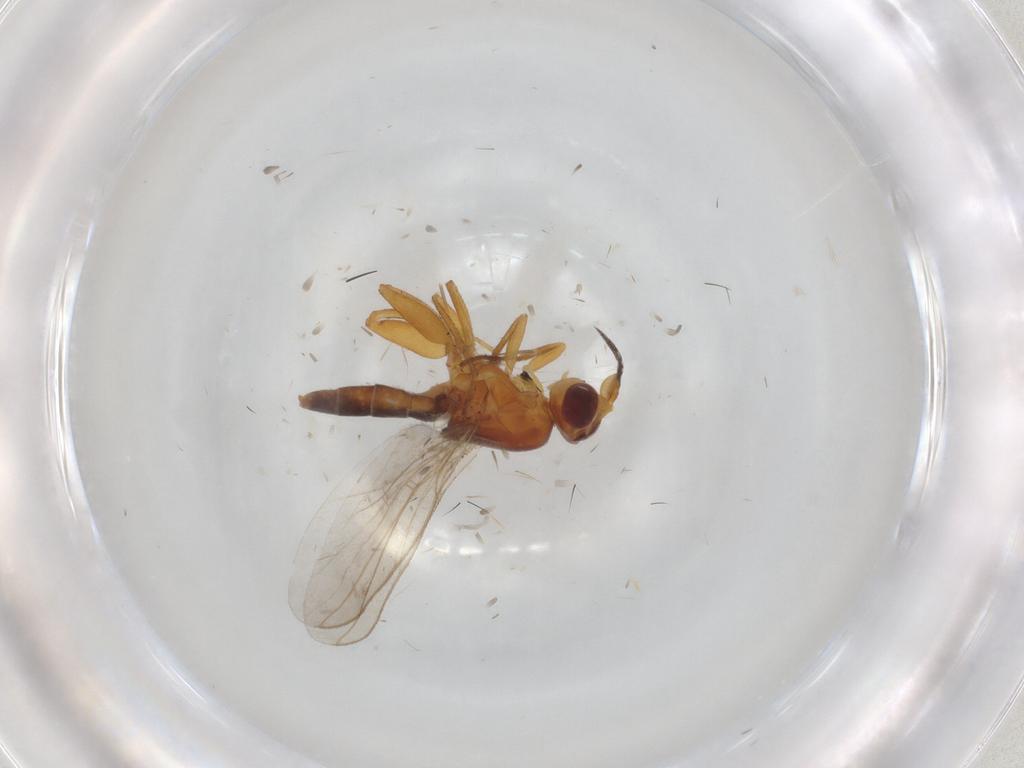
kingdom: Animalia
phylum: Arthropoda
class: Insecta
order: Diptera
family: Chloropidae
